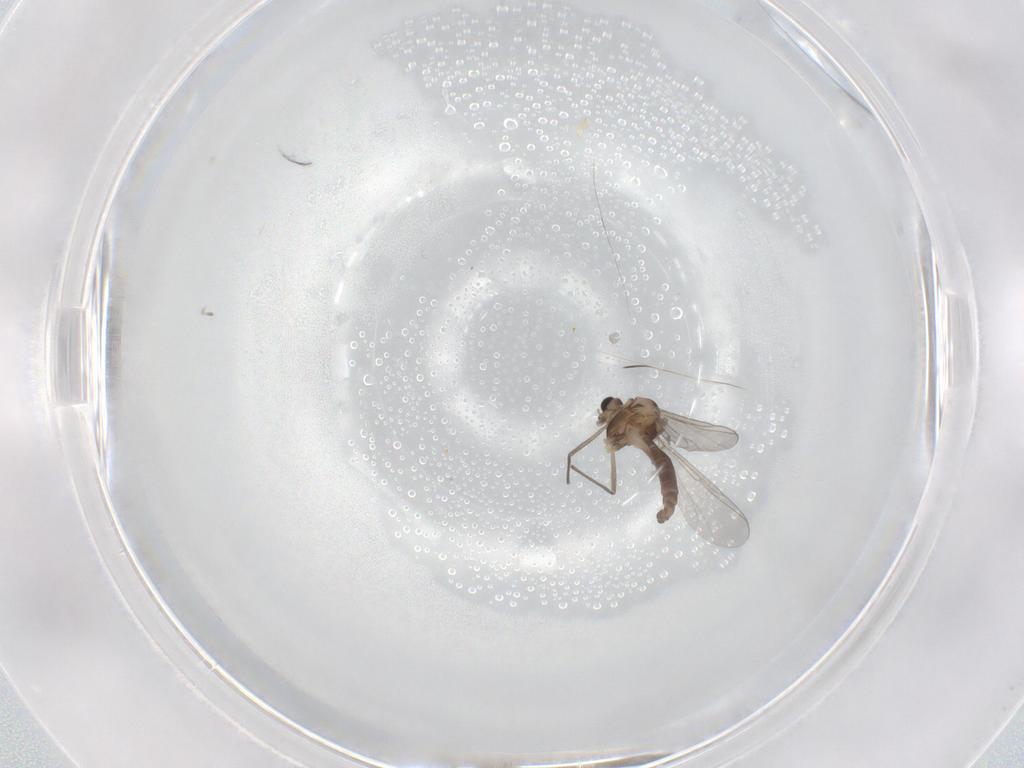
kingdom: Animalia
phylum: Arthropoda
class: Insecta
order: Diptera
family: Chironomidae
